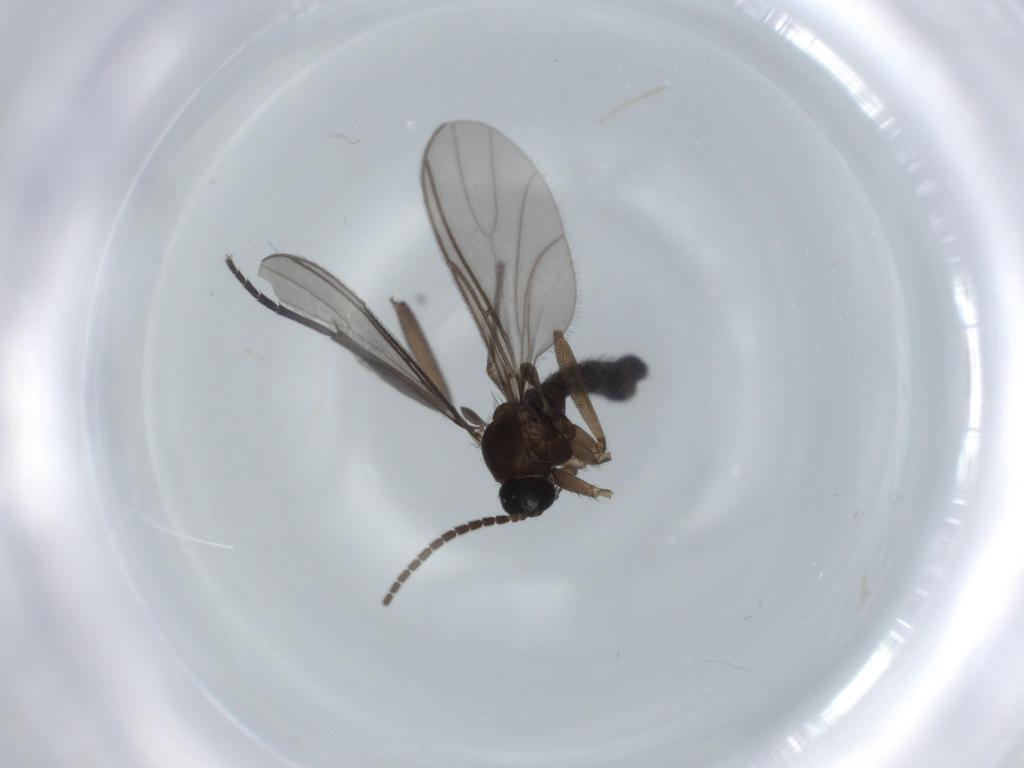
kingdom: Animalia
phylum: Arthropoda
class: Insecta
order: Diptera
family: Sciaridae
